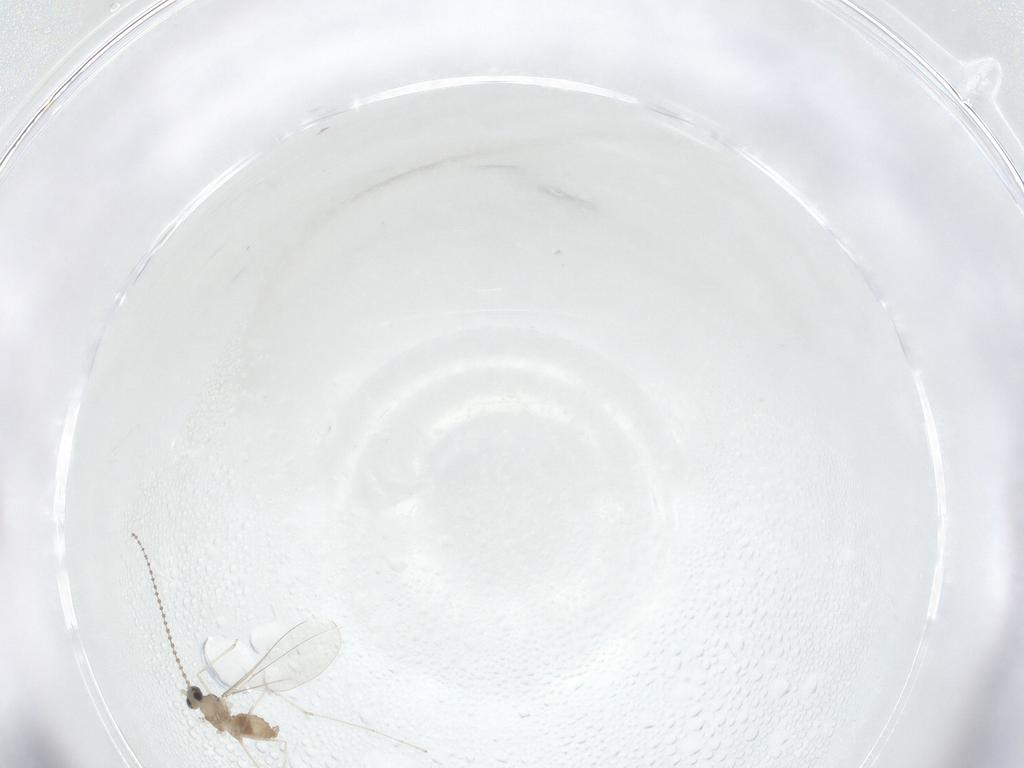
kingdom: Animalia
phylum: Arthropoda
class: Insecta
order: Diptera
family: Cecidomyiidae
